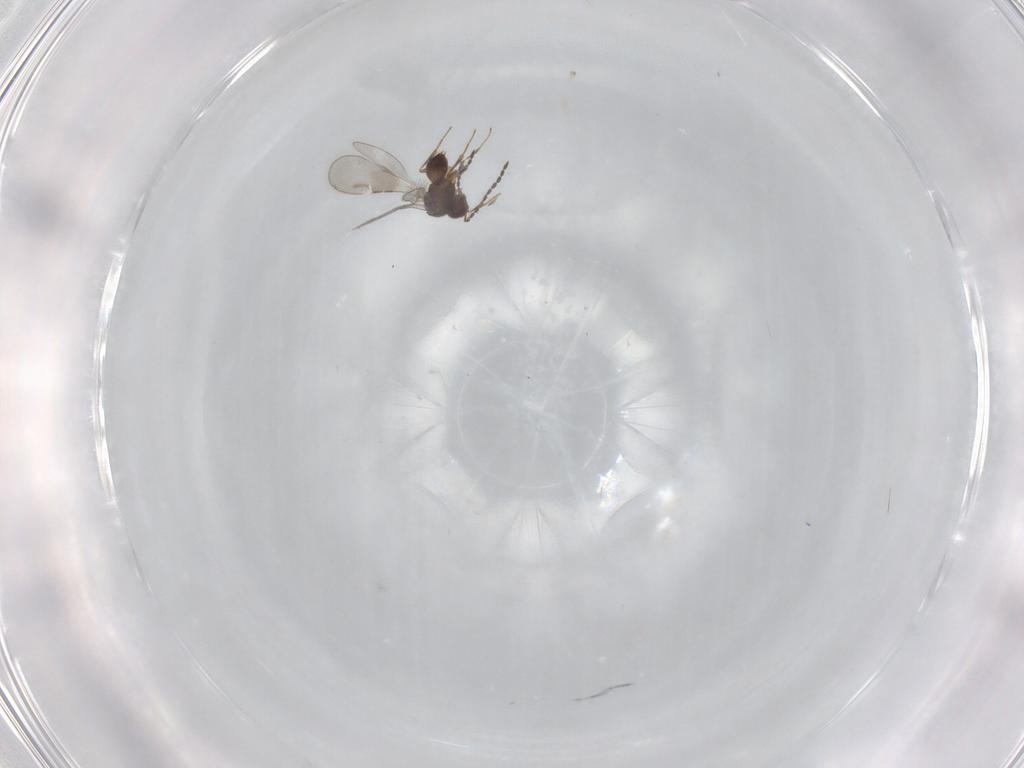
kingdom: Animalia
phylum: Arthropoda
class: Insecta
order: Hymenoptera
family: Ceraphronidae
